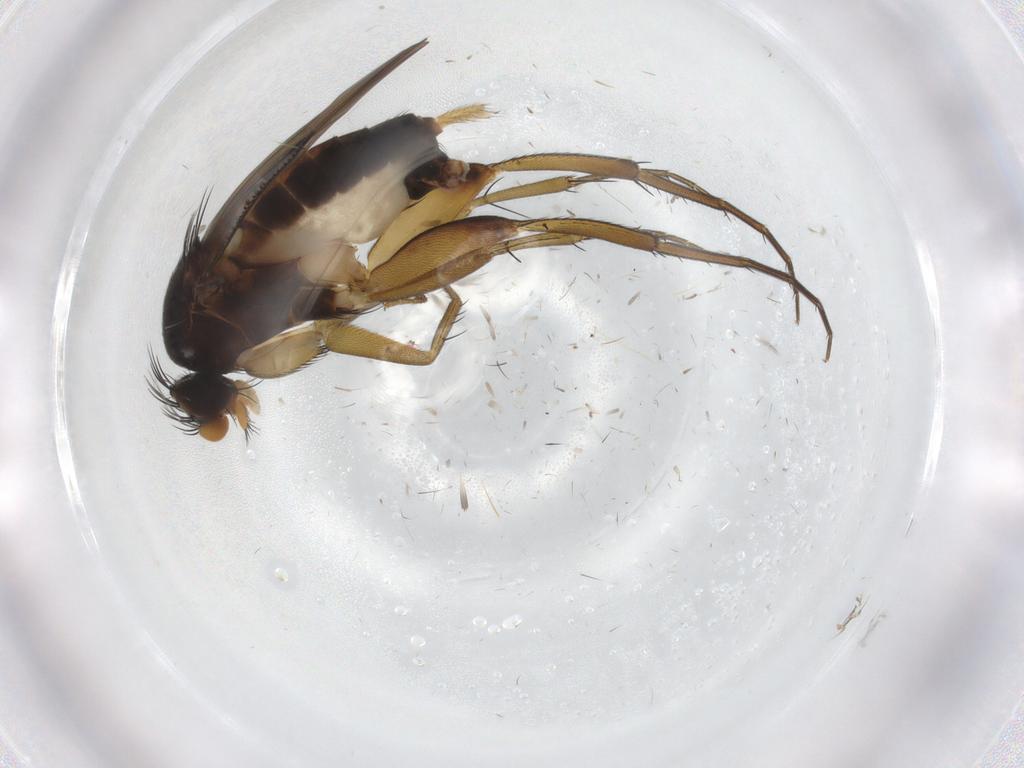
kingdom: Animalia
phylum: Arthropoda
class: Insecta
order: Diptera
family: Phoridae
